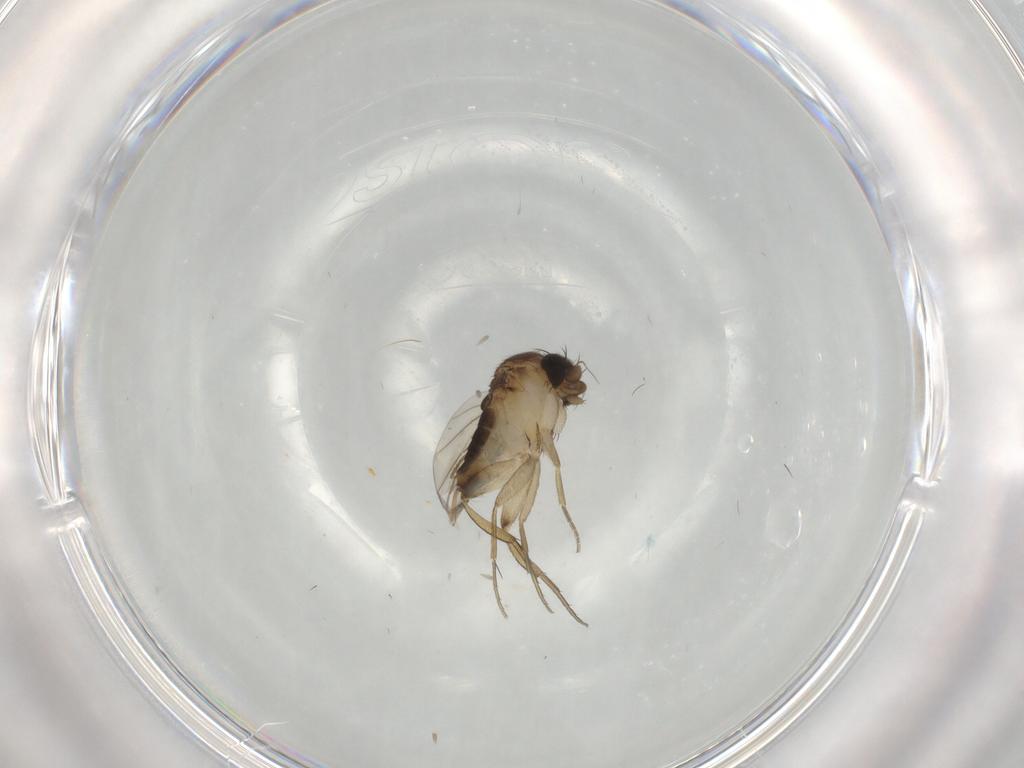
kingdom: Animalia
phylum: Arthropoda
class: Insecta
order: Diptera
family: Cecidomyiidae
